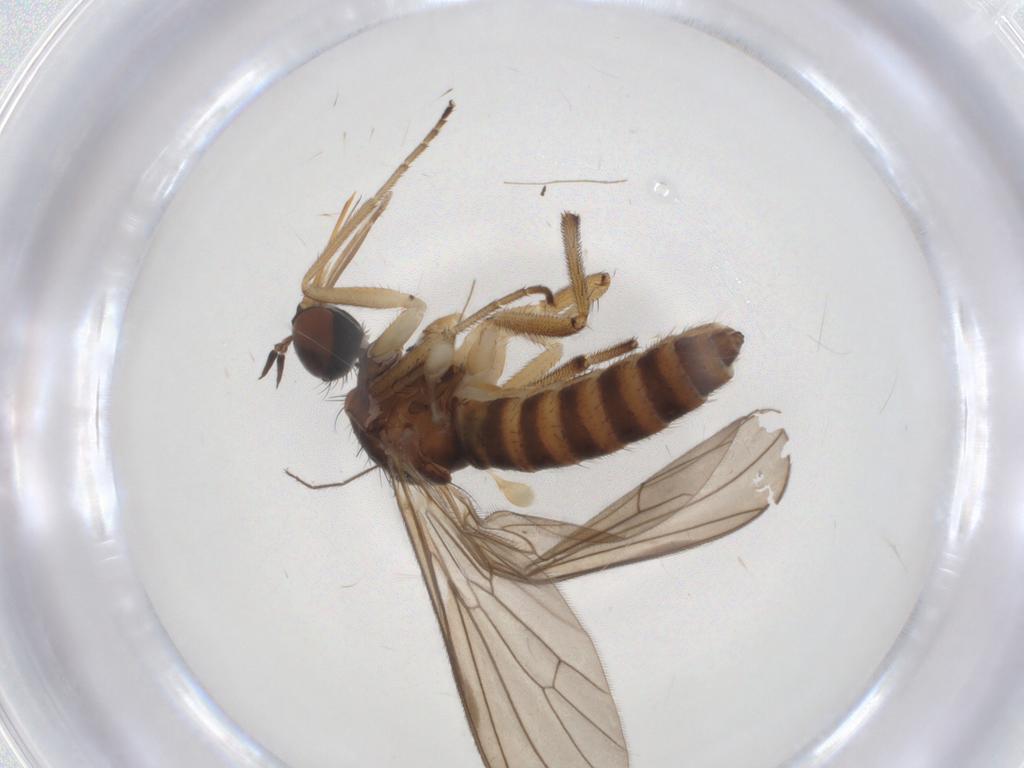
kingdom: Animalia
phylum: Arthropoda
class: Insecta
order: Diptera
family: Empididae
